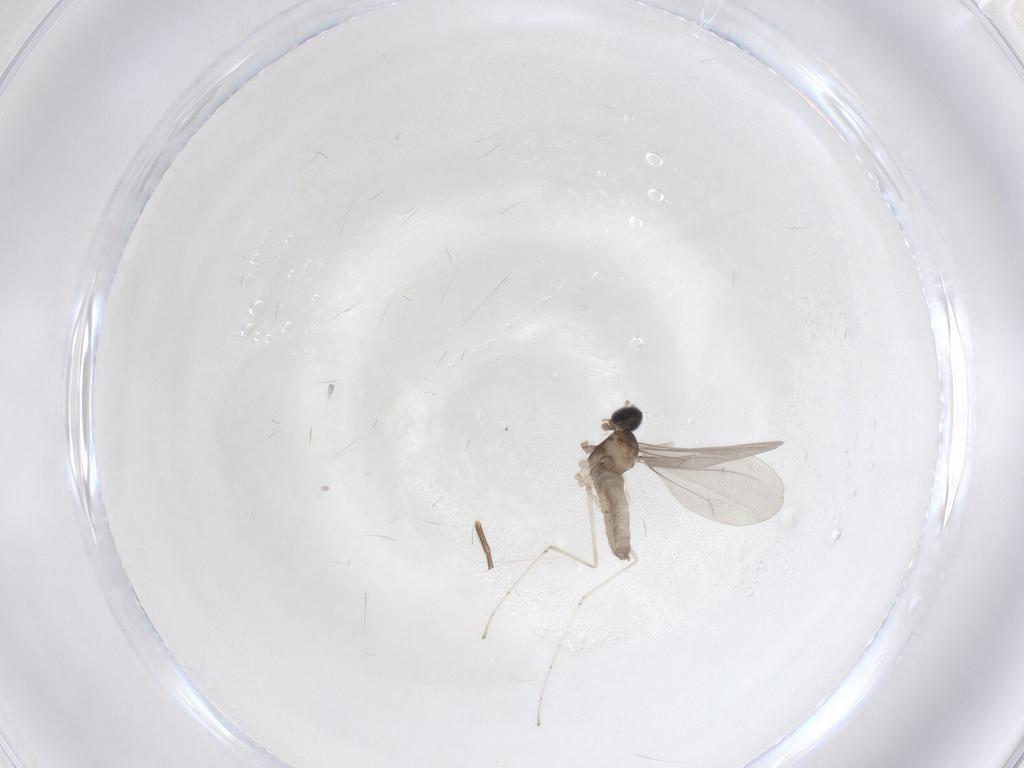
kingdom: Animalia
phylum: Arthropoda
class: Insecta
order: Diptera
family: Cecidomyiidae
